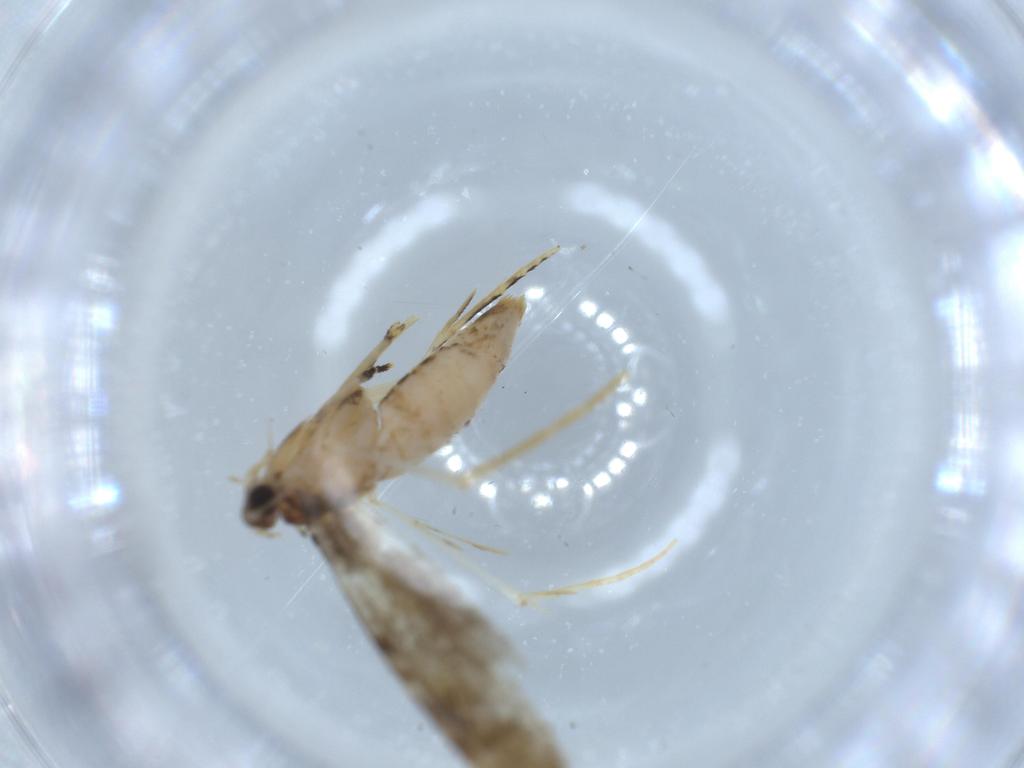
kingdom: Animalia
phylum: Arthropoda
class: Insecta
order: Lepidoptera
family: Tineidae
